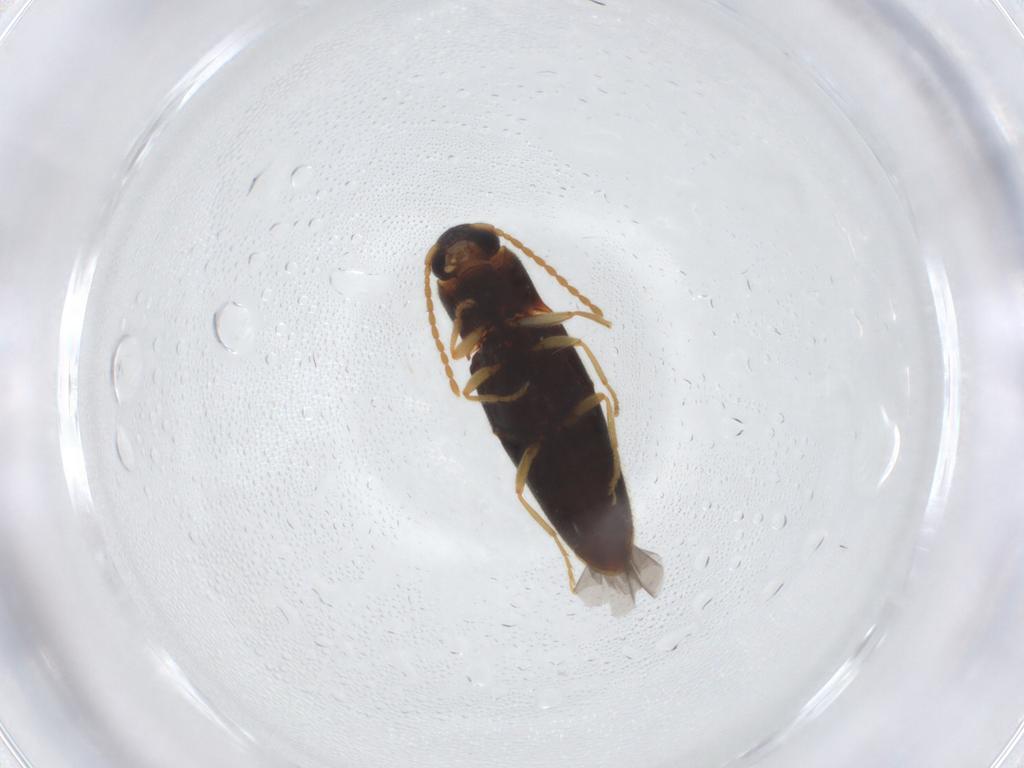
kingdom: Animalia
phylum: Arthropoda
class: Insecta
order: Coleoptera
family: Elateridae
